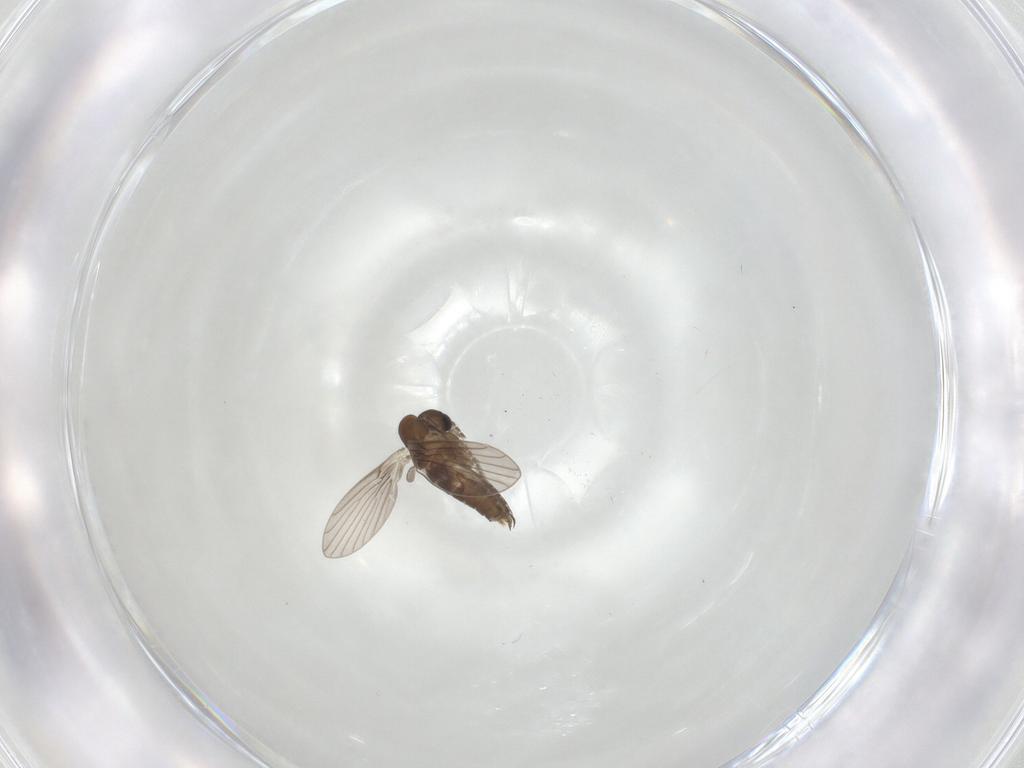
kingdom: Animalia
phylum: Arthropoda
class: Insecta
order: Diptera
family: Psychodidae
